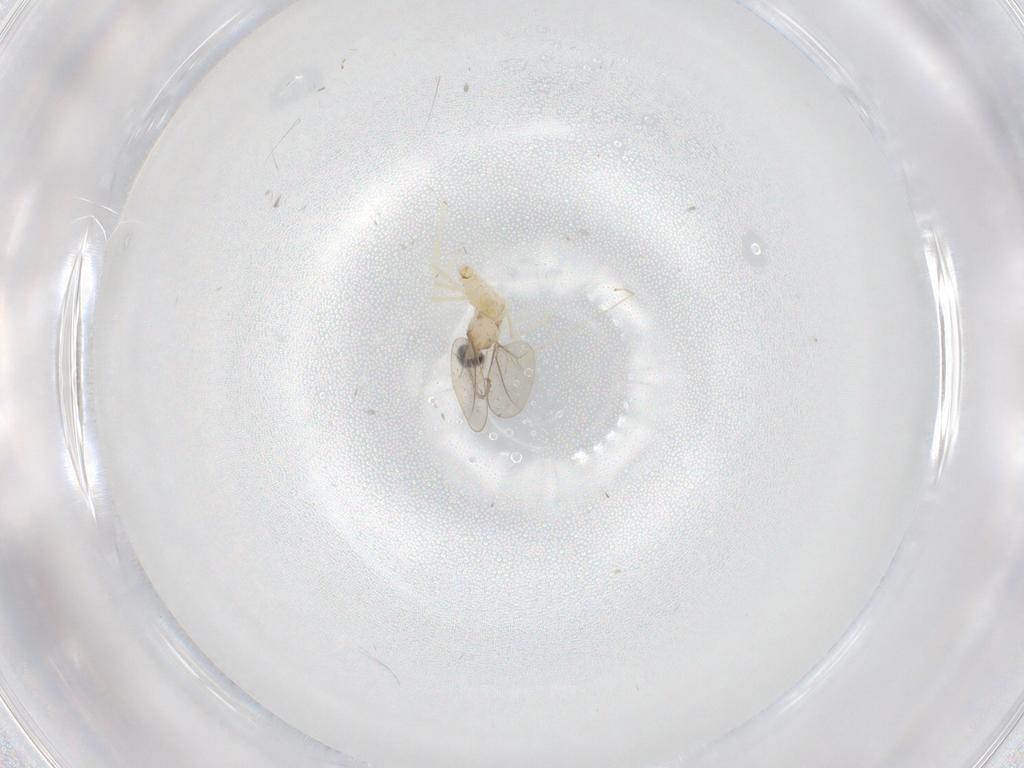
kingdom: Animalia
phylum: Arthropoda
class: Insecta
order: Diptera
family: Cecidomyiidae
